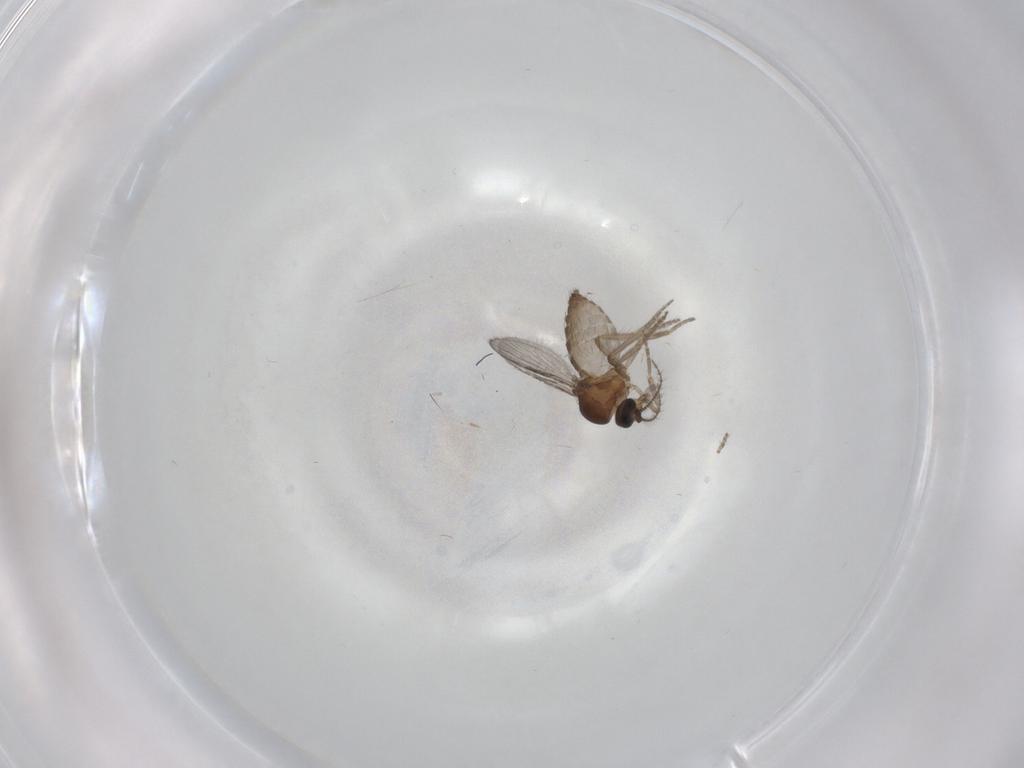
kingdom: Animalia
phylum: Arthropoda
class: Insecta
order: Diptera
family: Ceratopogonidae
